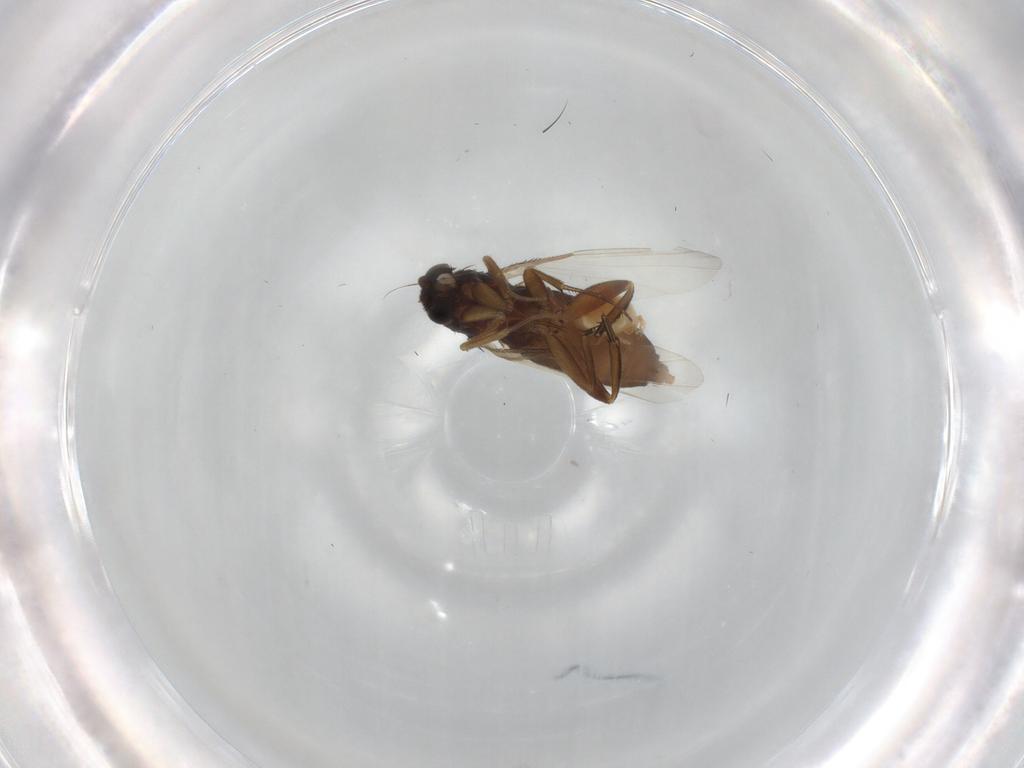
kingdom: Animalia
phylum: Arthropoda
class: Insecta
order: Diptera
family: Phoridae
